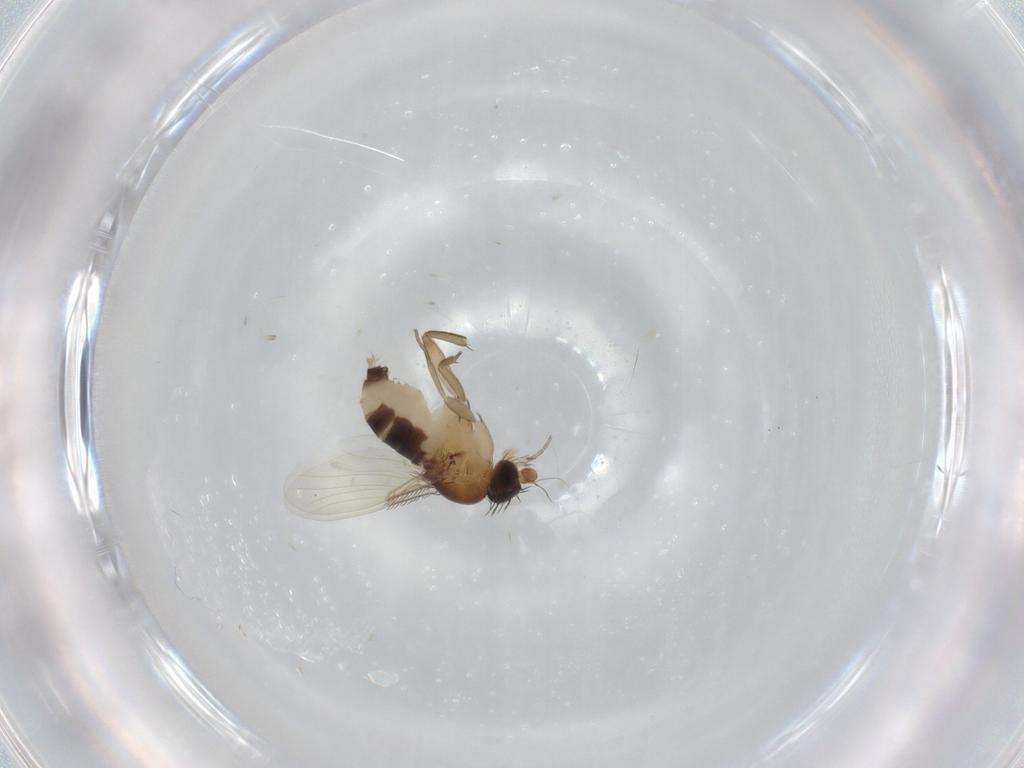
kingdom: Animalia
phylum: Arthropoda
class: Insecta
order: Diptera
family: Phoridae
